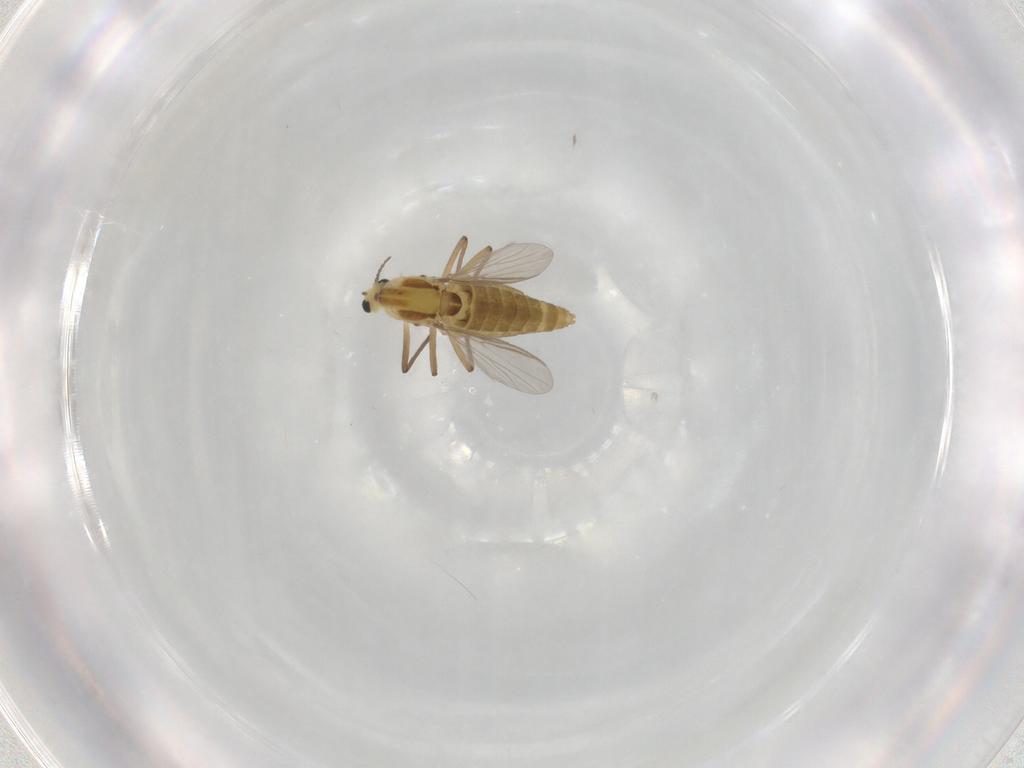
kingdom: Animalia
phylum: Arthropoda
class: Insecta
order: Diptera
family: Chironomidae
